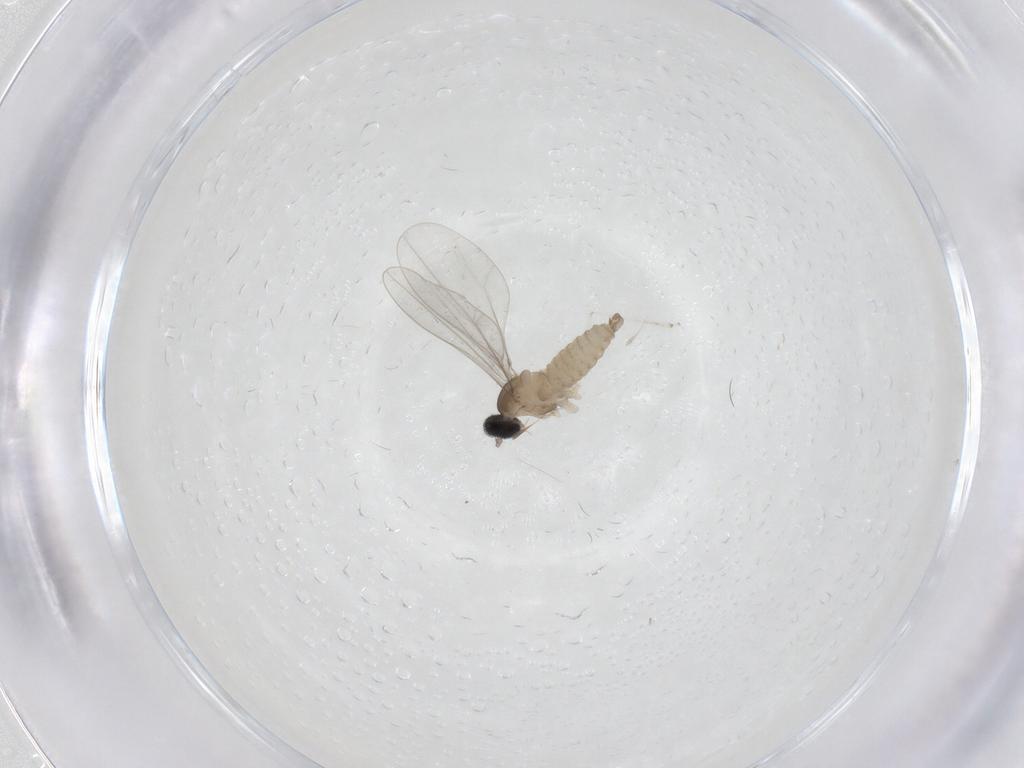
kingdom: Animalia
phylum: Arthropoda
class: Insecta
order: Diptera
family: Cecidomyiidae
